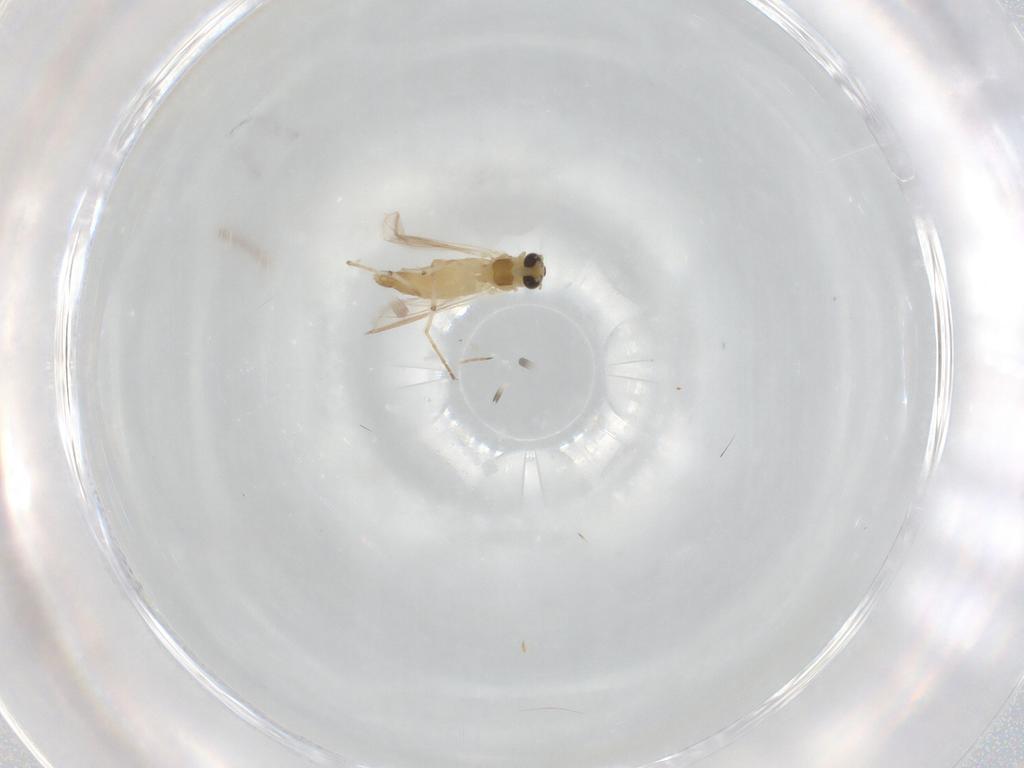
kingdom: Animalia
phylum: Arthropoda
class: Insecta
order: Diptera
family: Chironomidae
